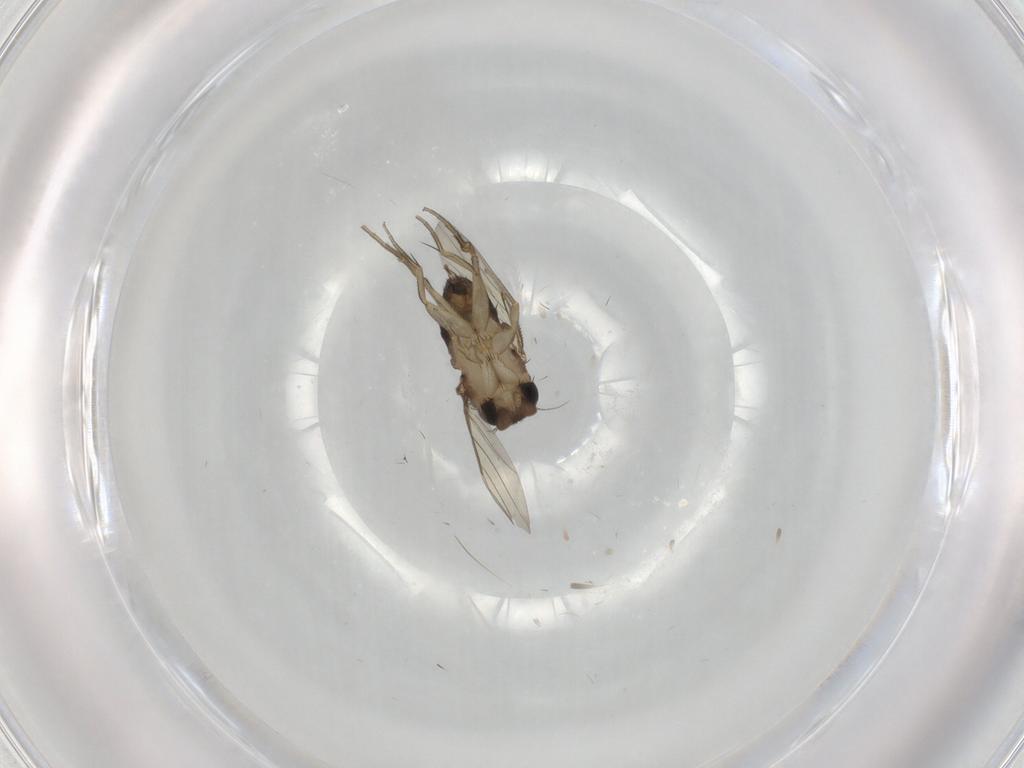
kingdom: Animalia
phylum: Arthropoda
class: Insecta
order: Diptera
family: Phoridae
